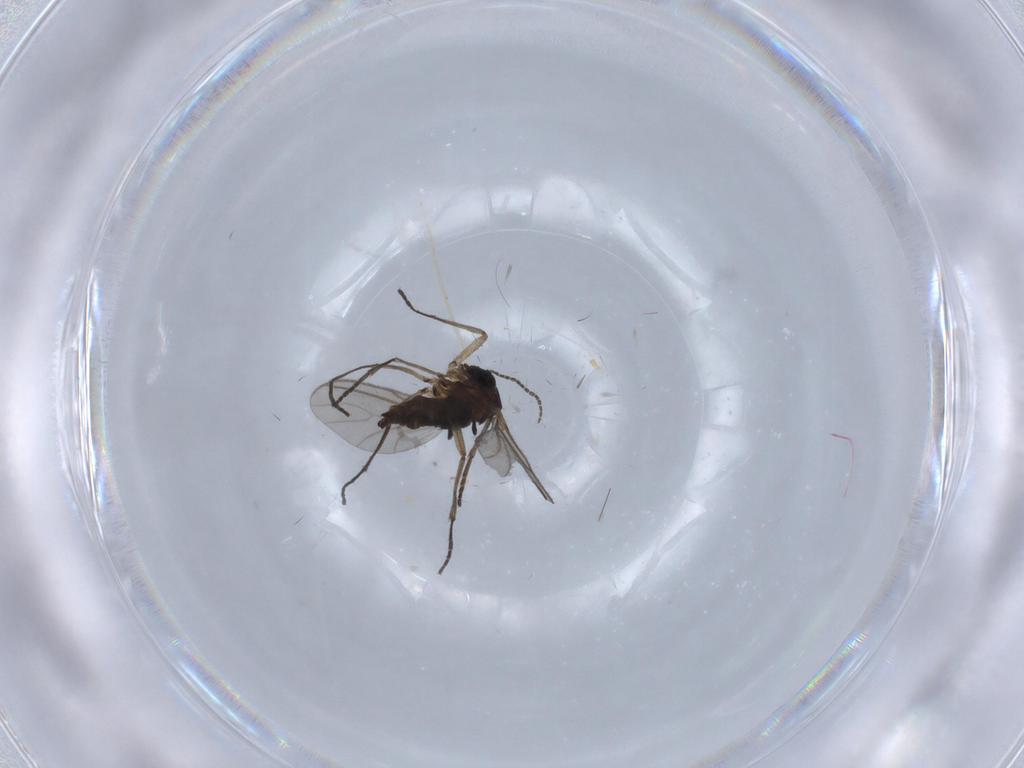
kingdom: Animalia
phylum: Arthropoda
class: Insecta
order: Diptera
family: Sciaridae
